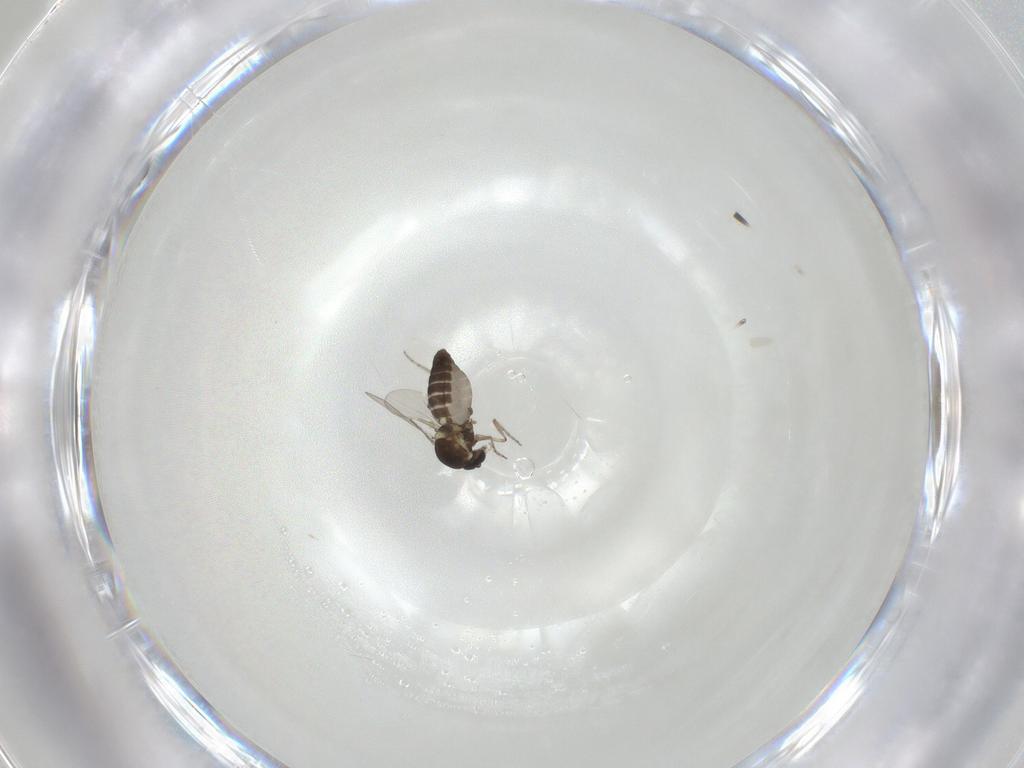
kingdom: Animalia
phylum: Arthropoda
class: Insecta
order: Diptera
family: Ceratopogonidae
